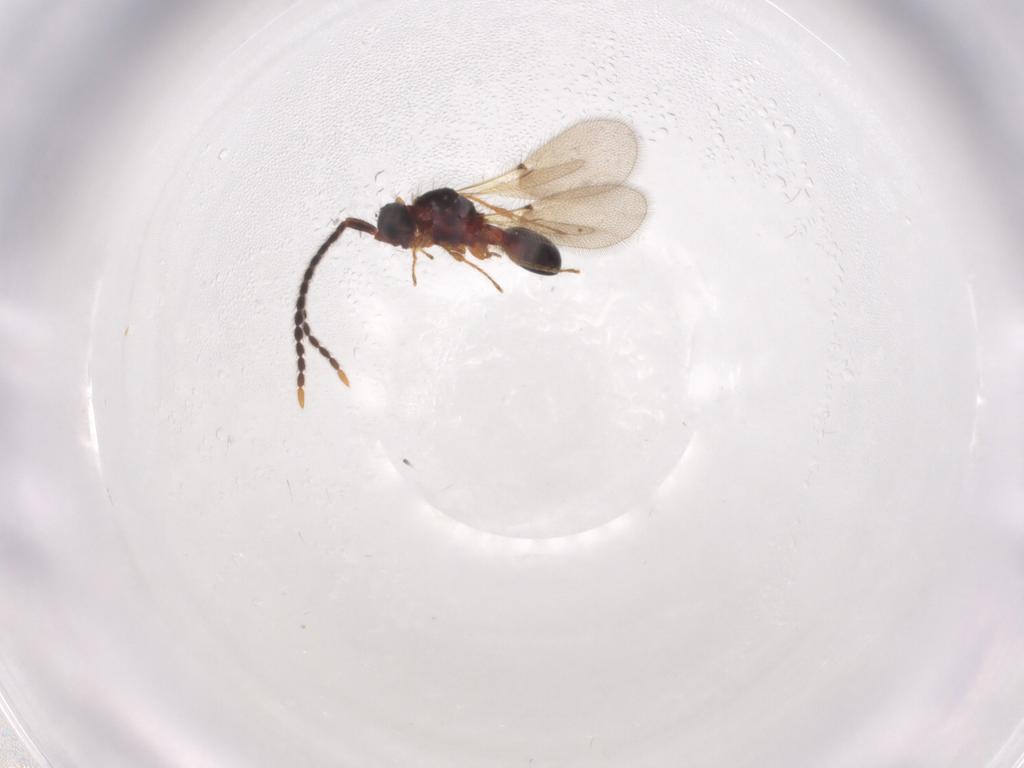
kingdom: Animalia
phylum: Arthropoda
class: Insecta
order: Hymenoptera
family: Diapriidae
